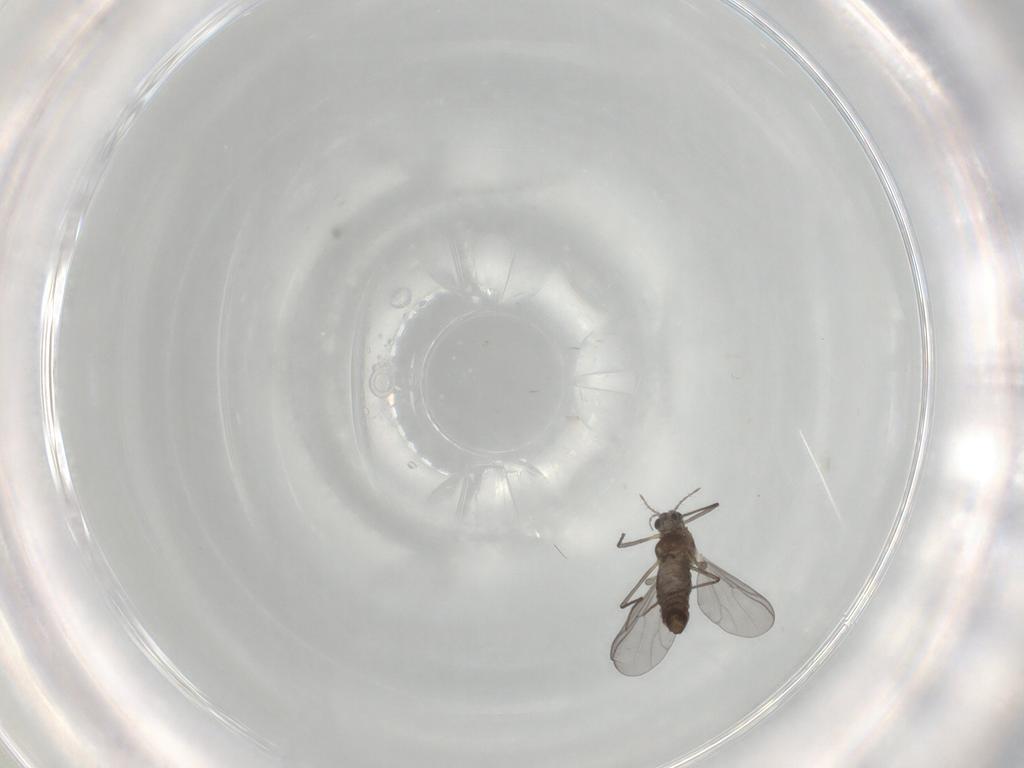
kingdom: Animalia
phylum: Arthropoda
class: Insecta
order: Diptera
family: Chironomidae
